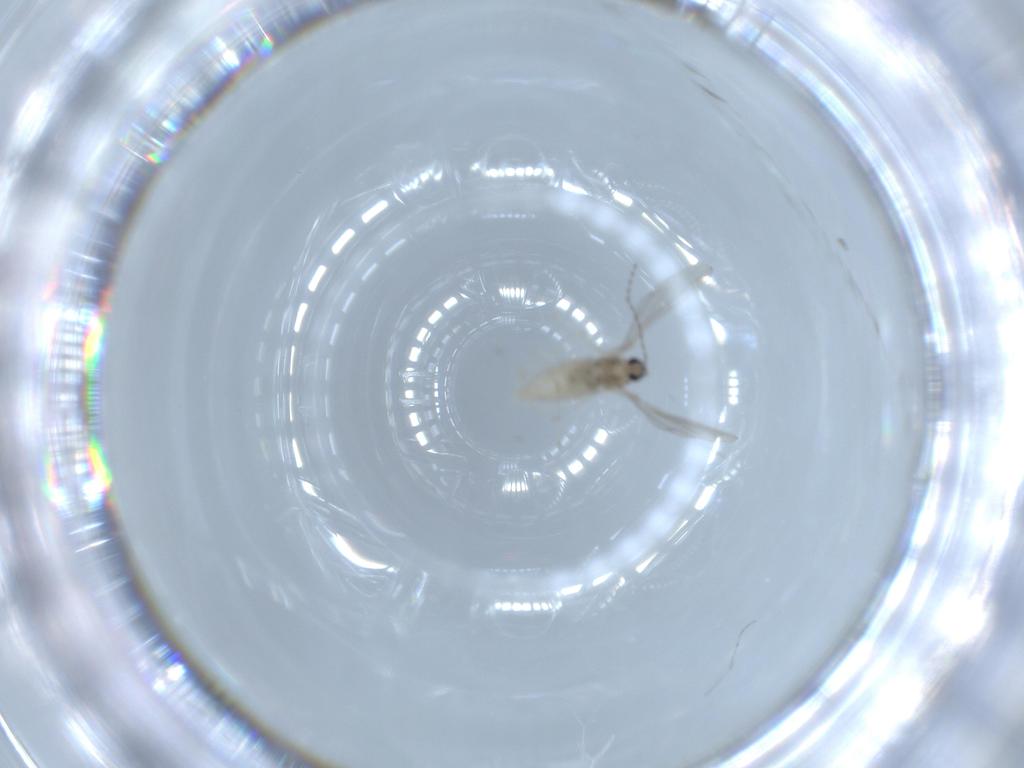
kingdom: Animalia
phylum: Arthropoda
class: Insecta
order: Diptera
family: Cecidomyiidae
